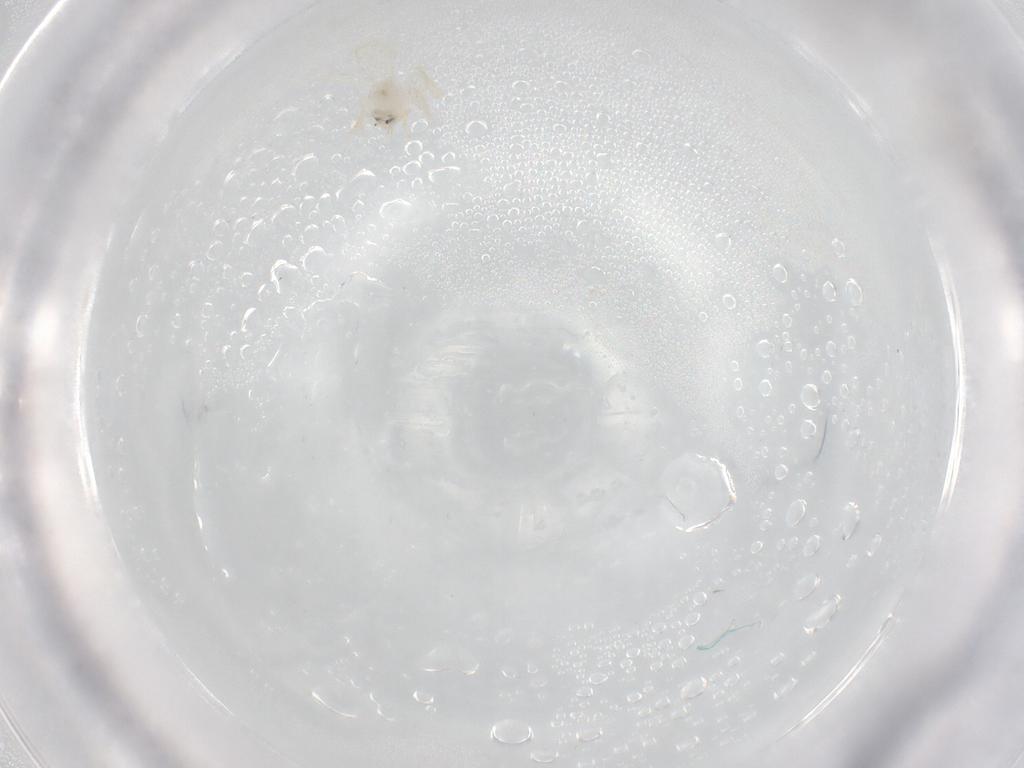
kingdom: Animalia
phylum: Arthropoda
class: Insecta
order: Hemiptera
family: Aleyrodidae
